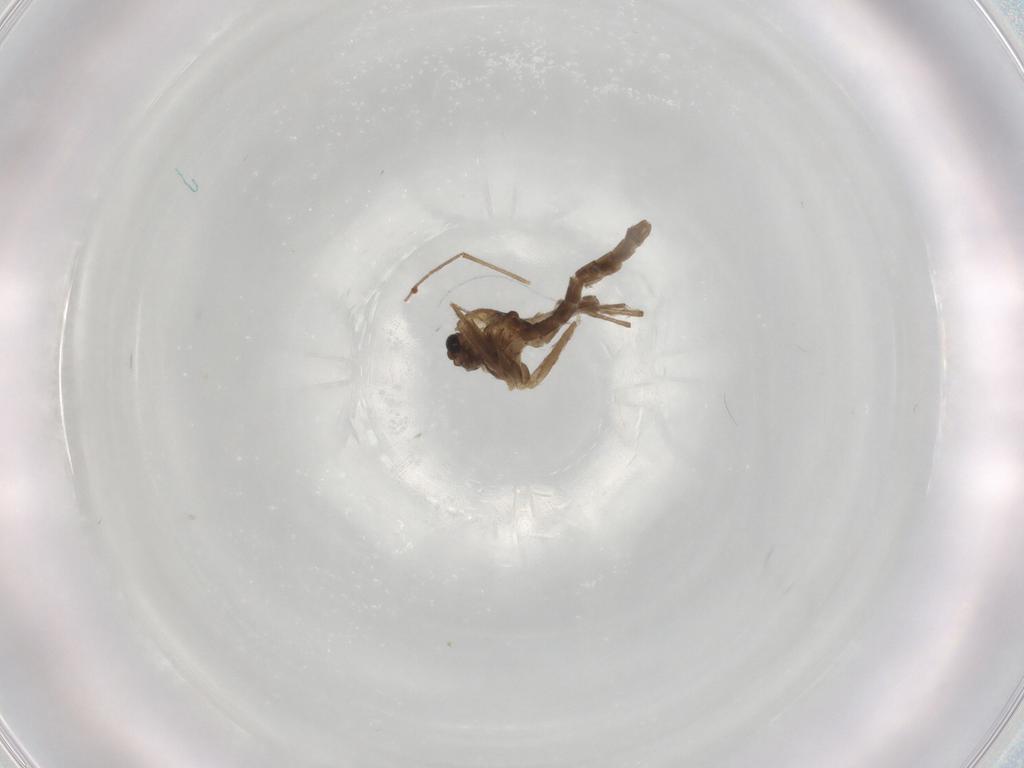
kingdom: Animalia
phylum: Arthropoda
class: Insecta
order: Diptera
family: Chironomidae
